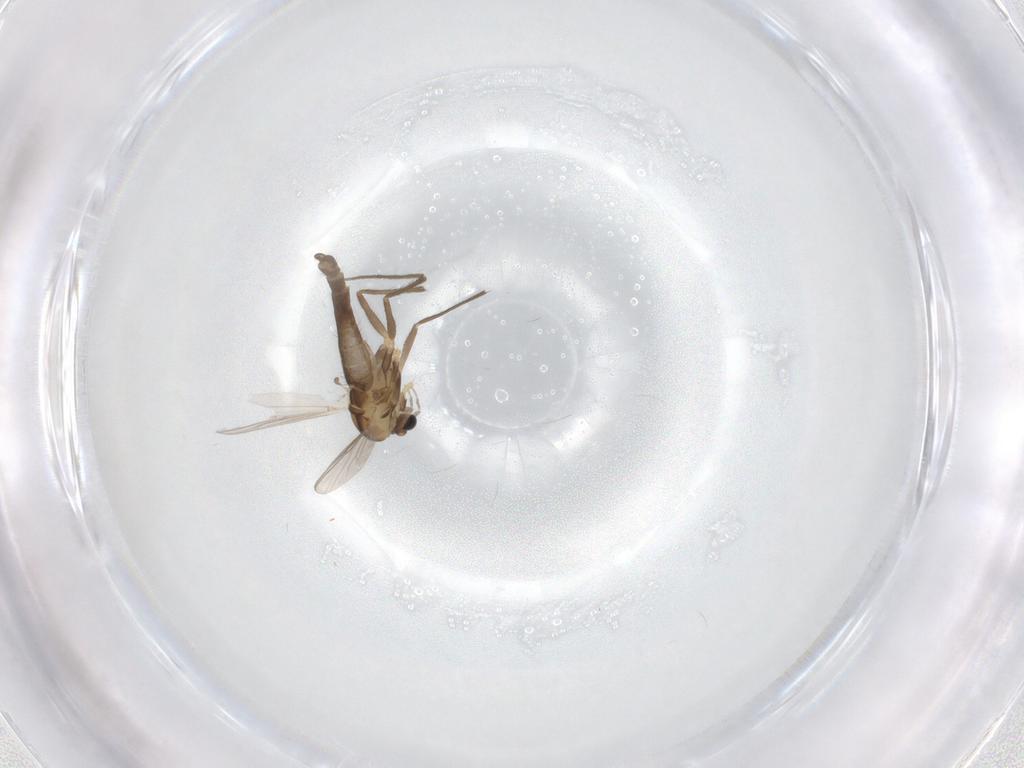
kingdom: Animalia
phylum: Arthropoda
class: Insecta
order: Diptera
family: Chironomidae
